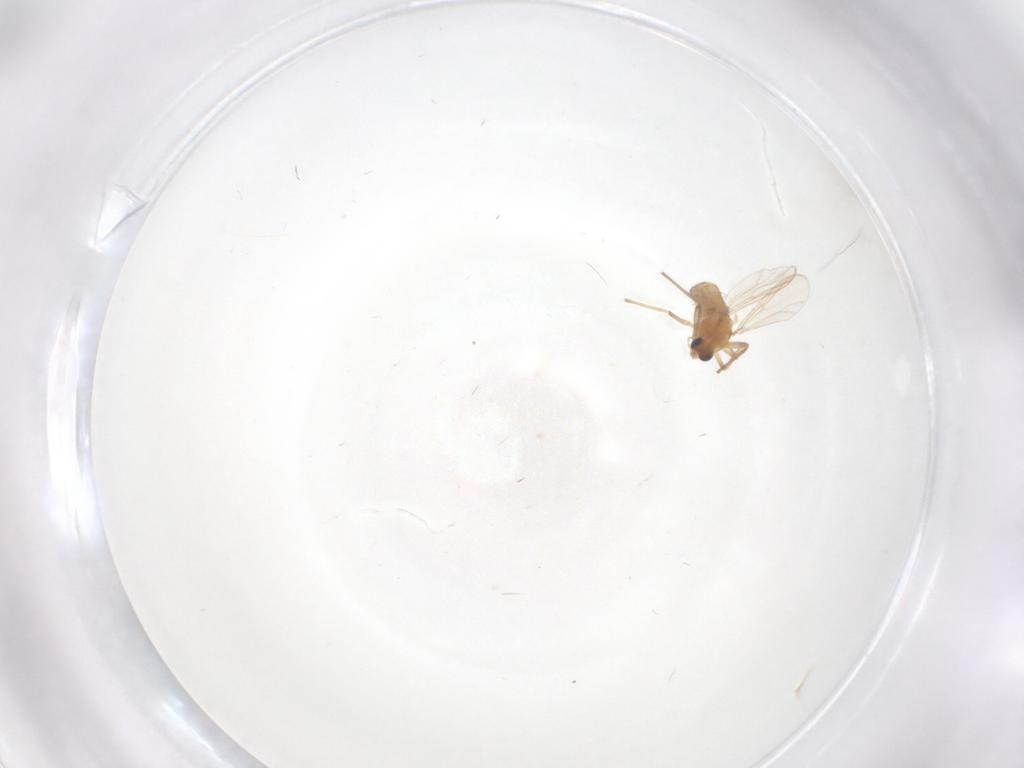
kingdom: Animalia
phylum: Arthropoda
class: Insecta
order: Diptera
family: Chironomidae
